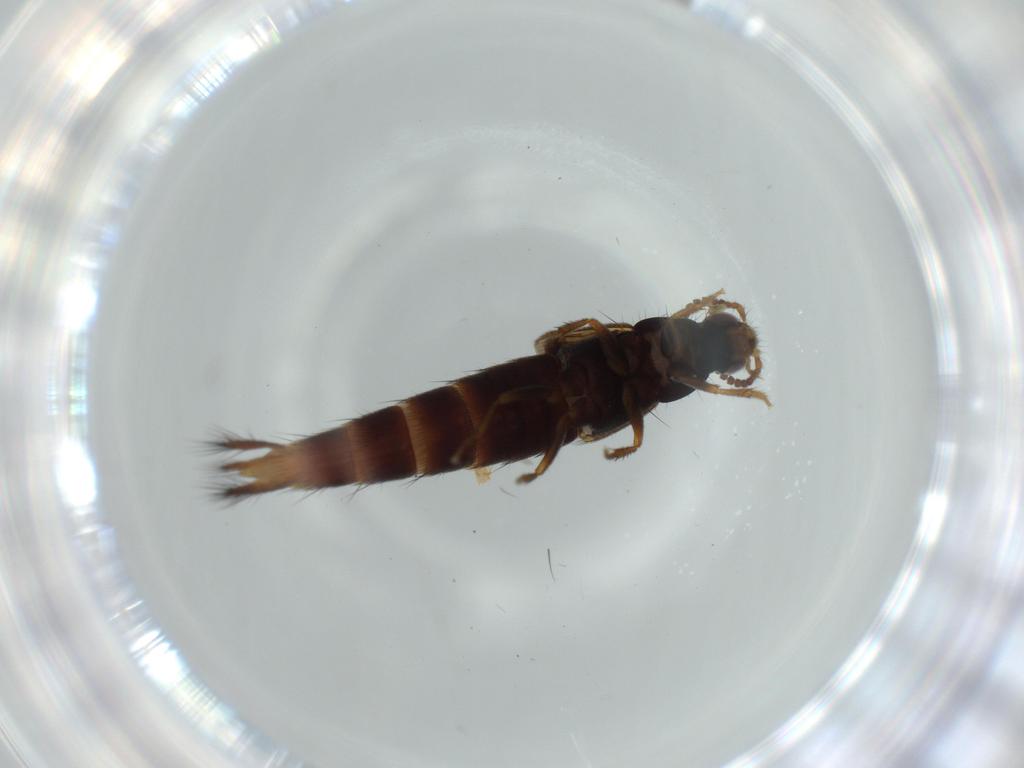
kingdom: Animalia
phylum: Arthropoda
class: Insecta
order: Coleoptera
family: Staphylinidae
